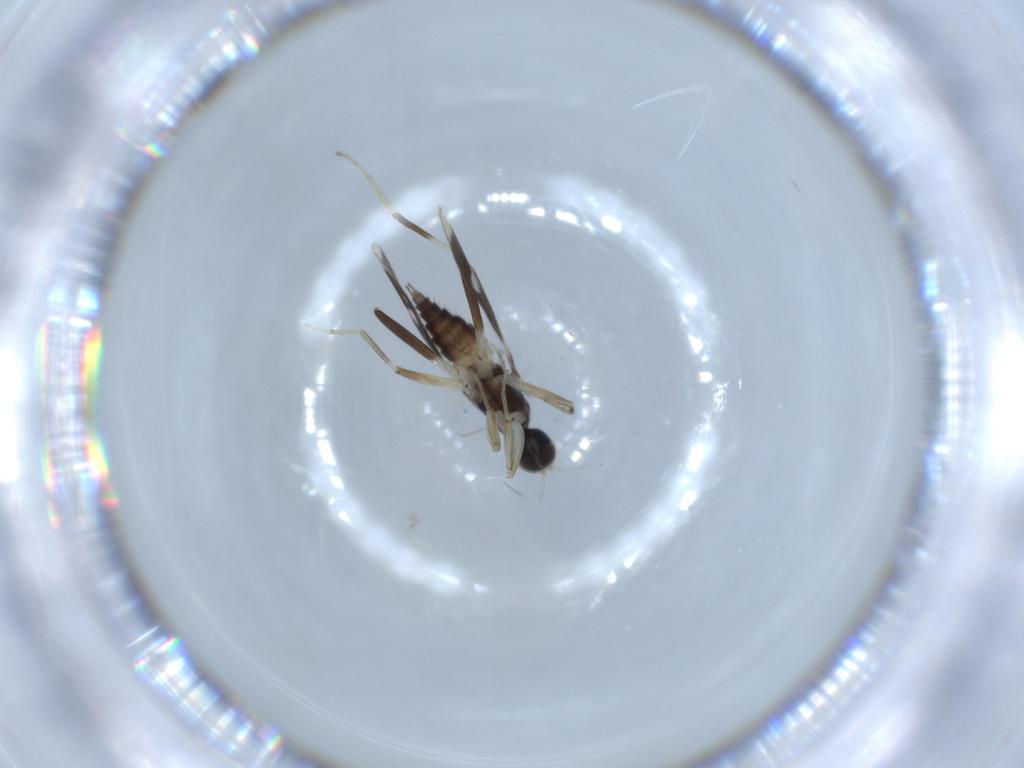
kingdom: Animalia
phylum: Arthropoda
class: Insecta
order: Diptera
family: Hybotidae
